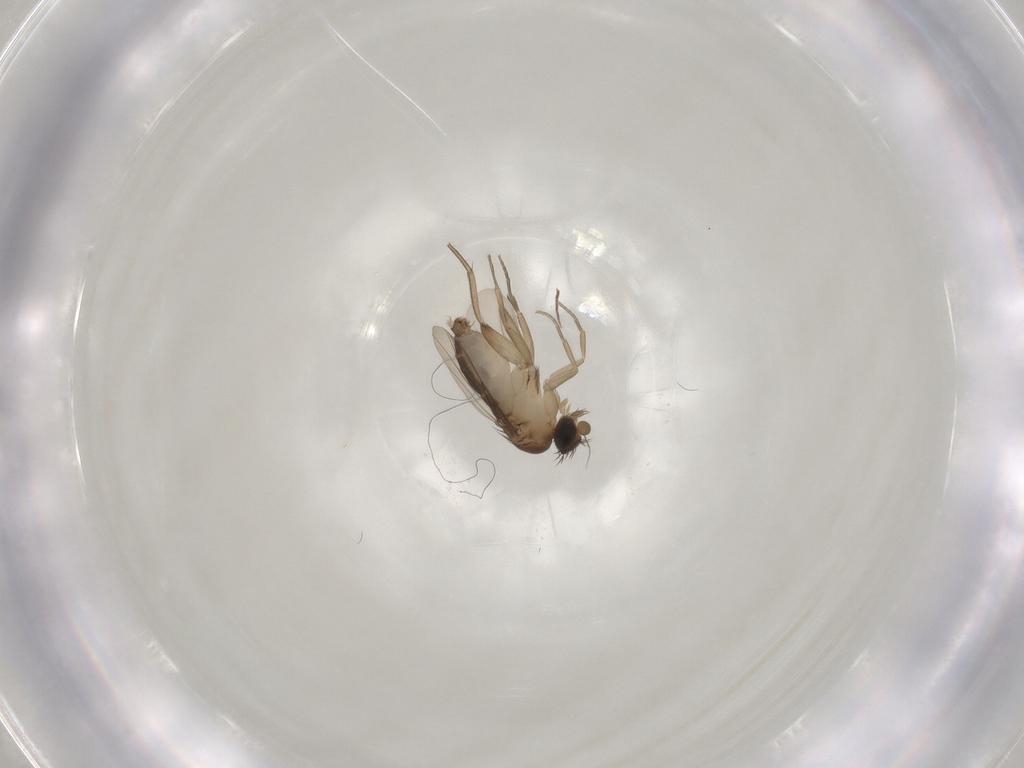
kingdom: Animalia
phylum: Arthropoda
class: Insecta
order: Diptera
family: Phoridae
